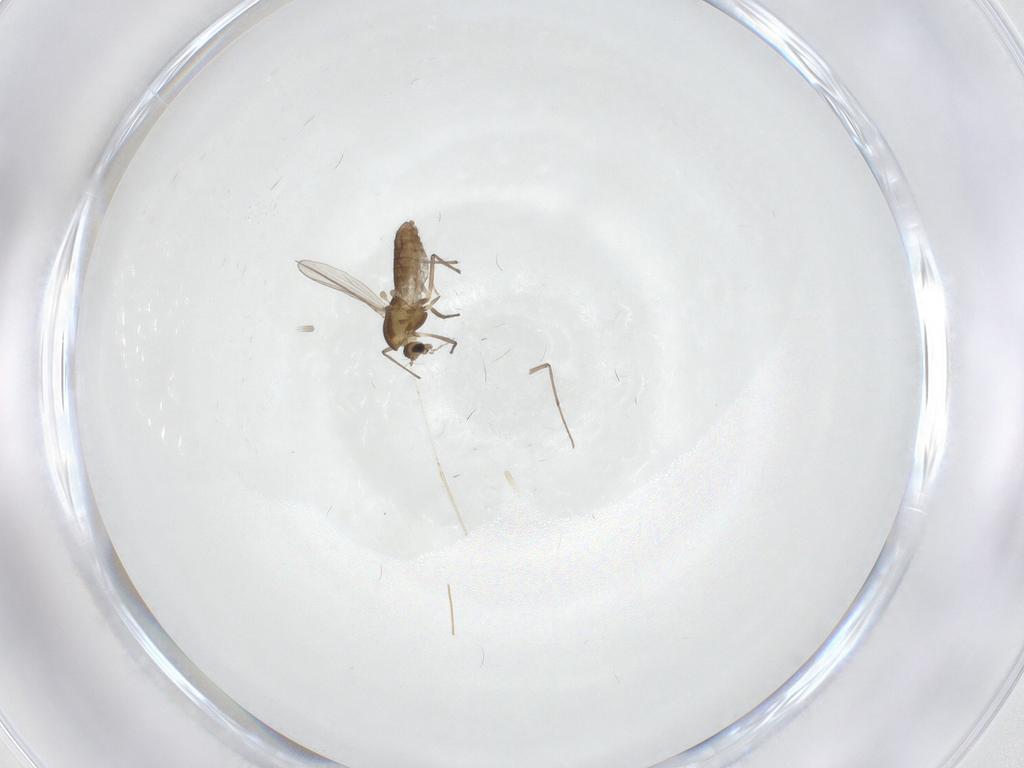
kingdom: Animalia
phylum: Arthropoda
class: Insecta
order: Diptera
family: Chironomidae
